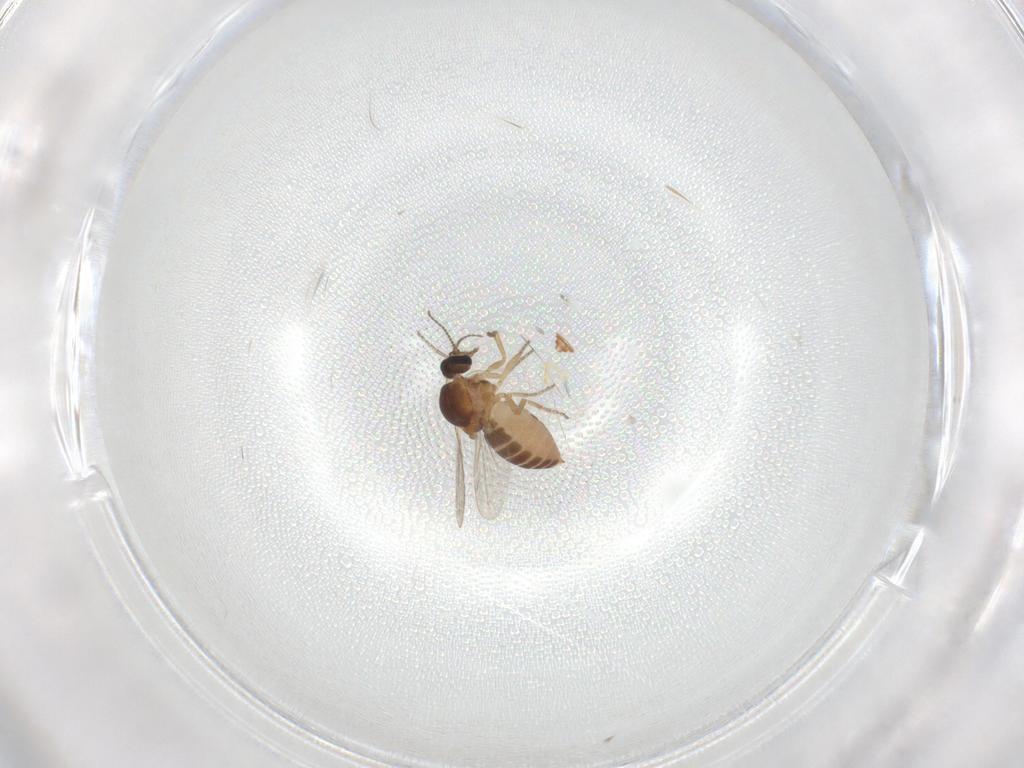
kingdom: Animalia
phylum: Arthropoda
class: Insecta
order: Diptera
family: Ceratopogonidae
